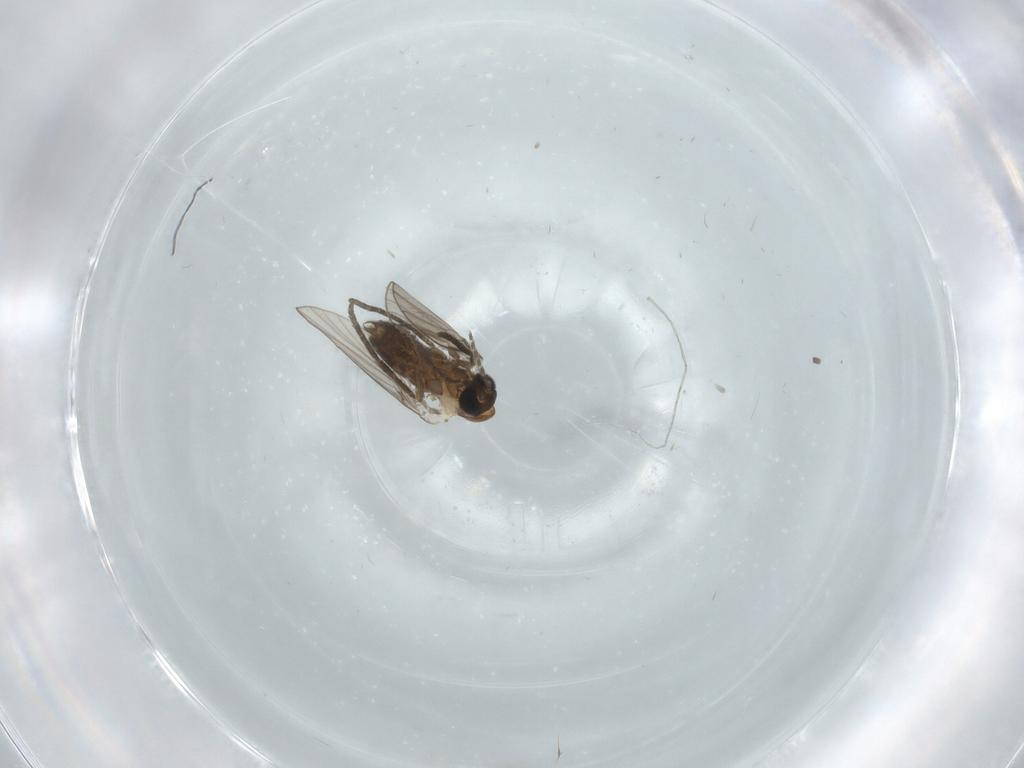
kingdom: Animalia
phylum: Arthropoda
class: Insecta
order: Diptera
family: Psychodidae
